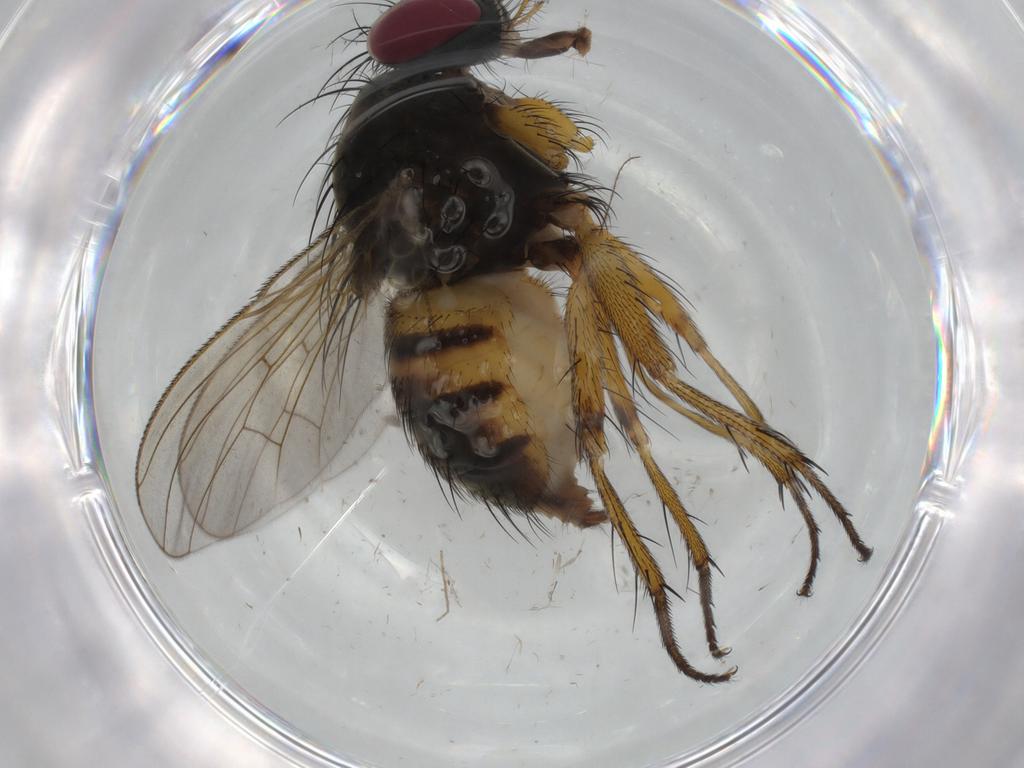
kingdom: Animalia
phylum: Arthropoda
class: Insecta
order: Diptera
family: Muscidae
